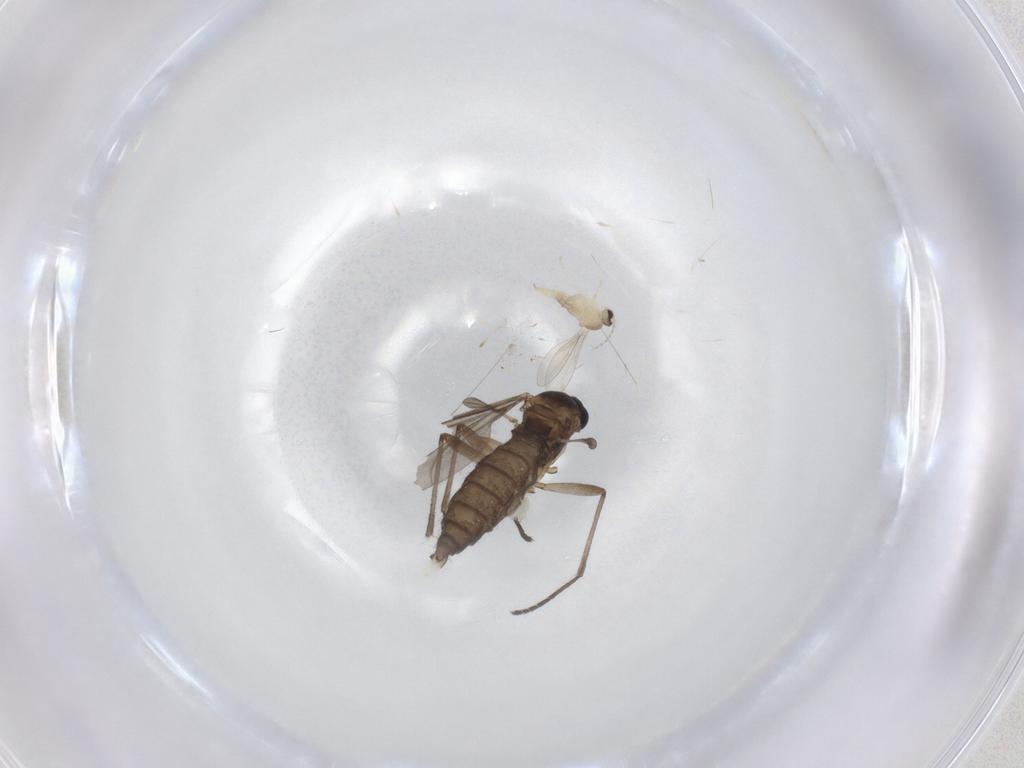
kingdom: Animalia
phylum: Arthropoda
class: Insecta
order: Diptera
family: Sciaridae
